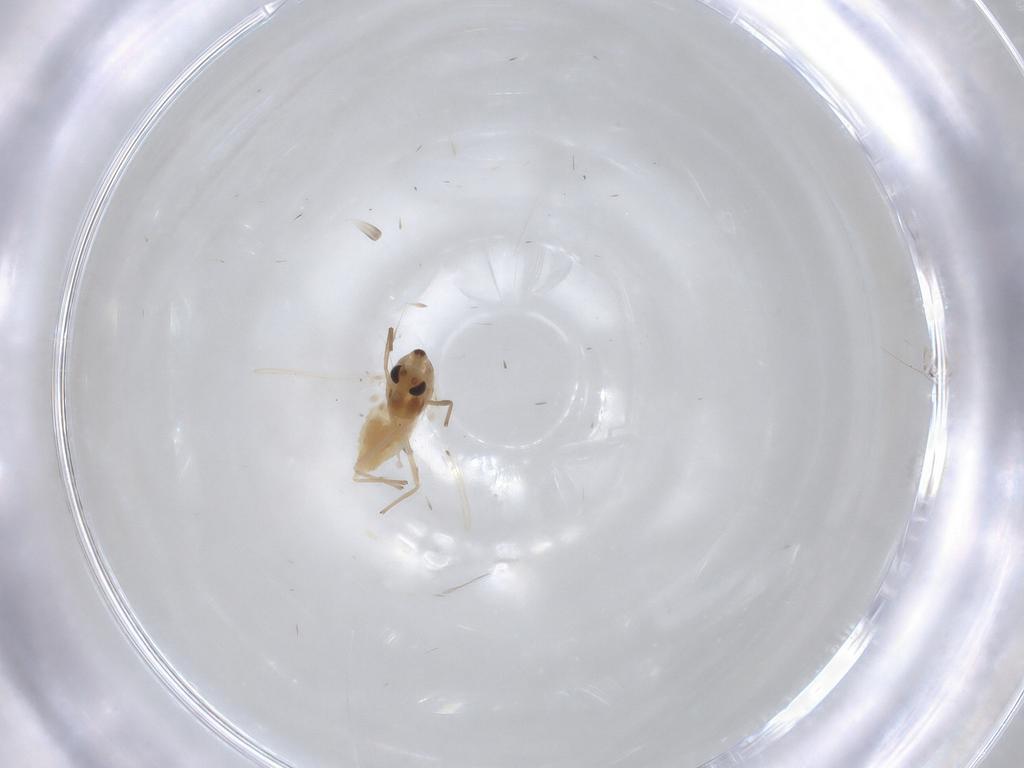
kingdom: Animalia
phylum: Arthropoda
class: Insecta
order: Diptera
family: Chironomidae
